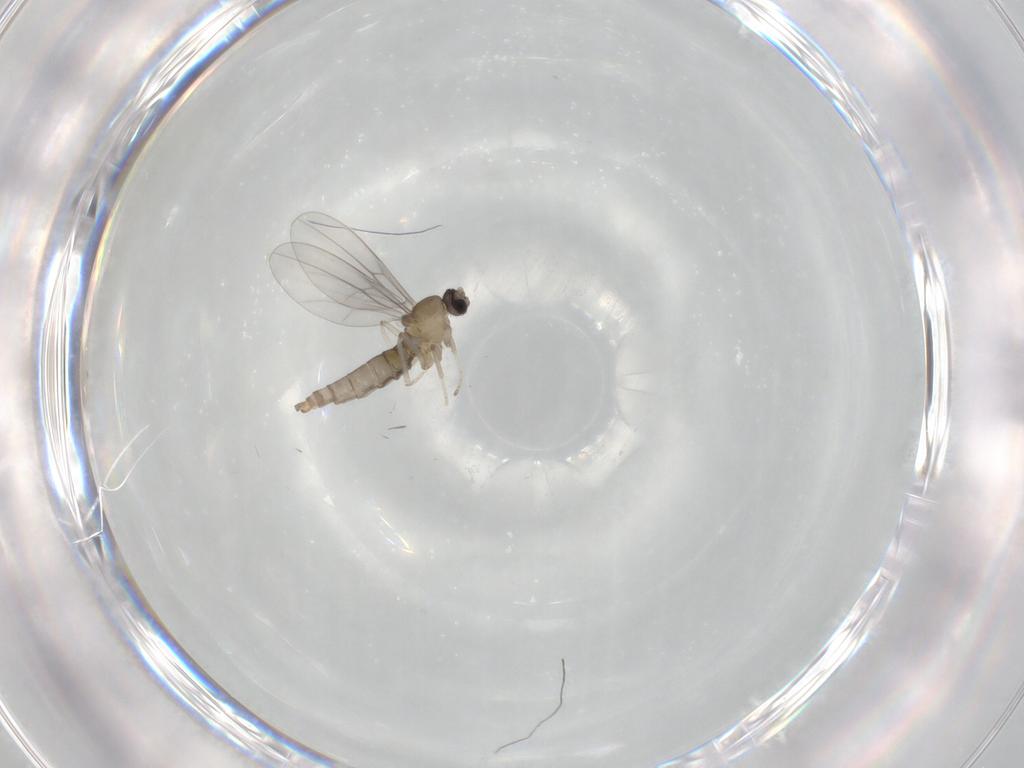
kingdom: Animalia
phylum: Arthropoda
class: Insecta
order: Diptera
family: Cecidomyiidae
